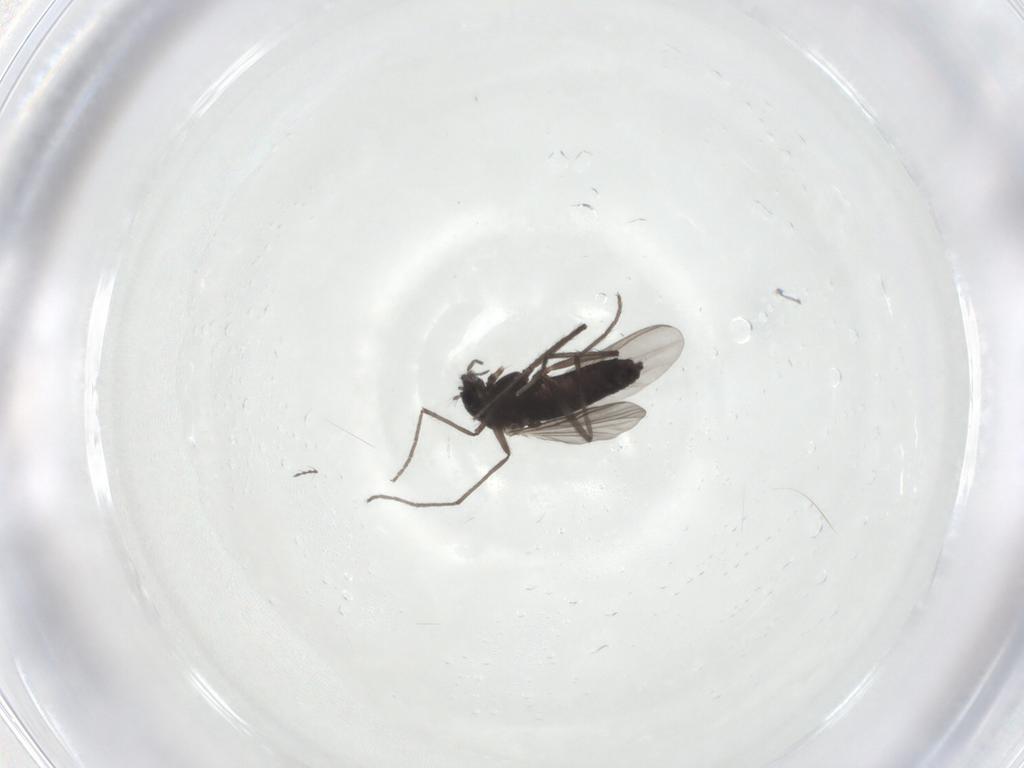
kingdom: Animalia
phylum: Arthropoda
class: Insecta
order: Diptera
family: Chironomidae
